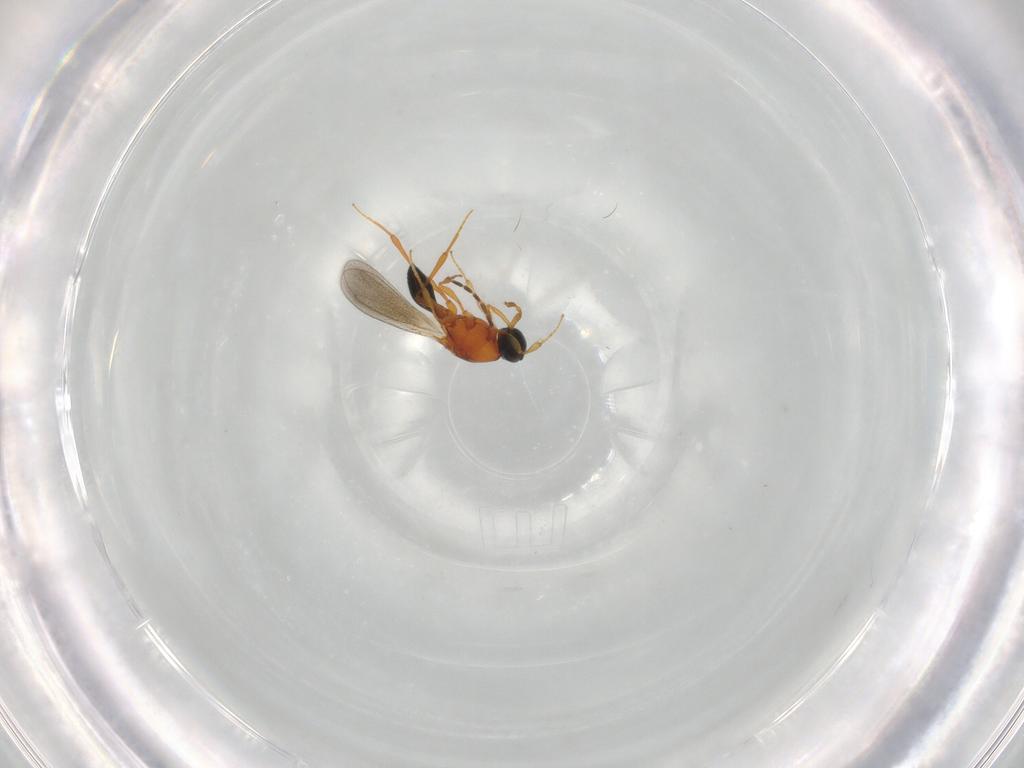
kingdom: Animalia
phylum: Arthropoda
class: Insecta
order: Hymenoptera
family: Platygastridae
